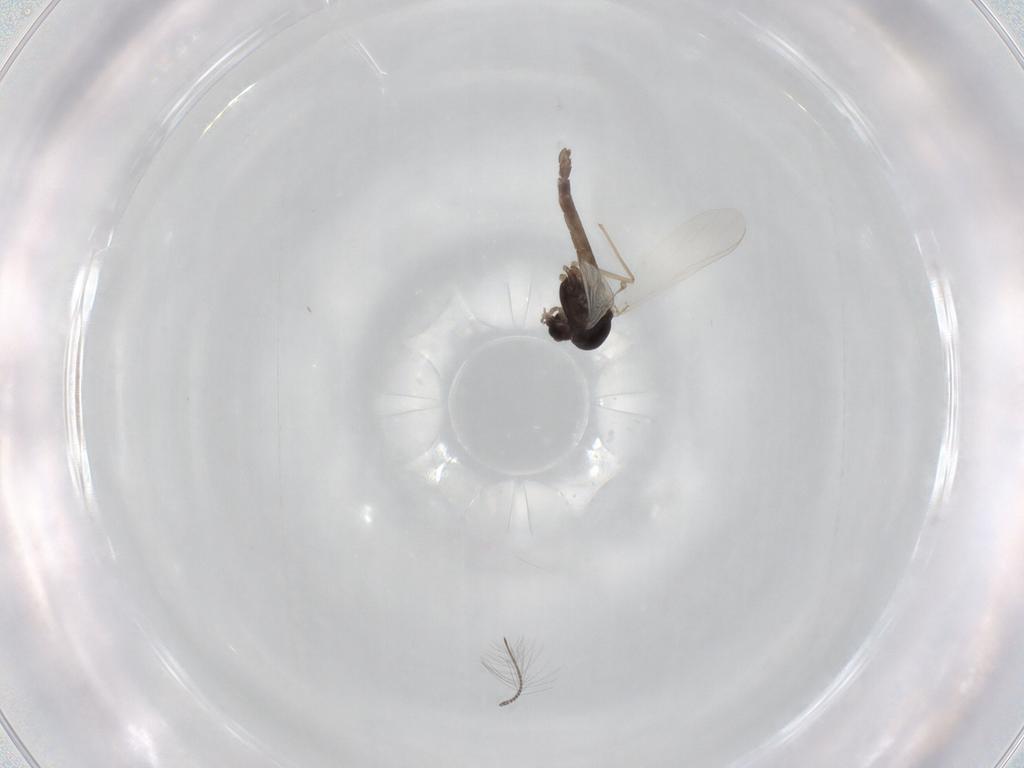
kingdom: Animalia
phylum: Arthropoda
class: Insecta
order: Diptera
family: Chironomidae
